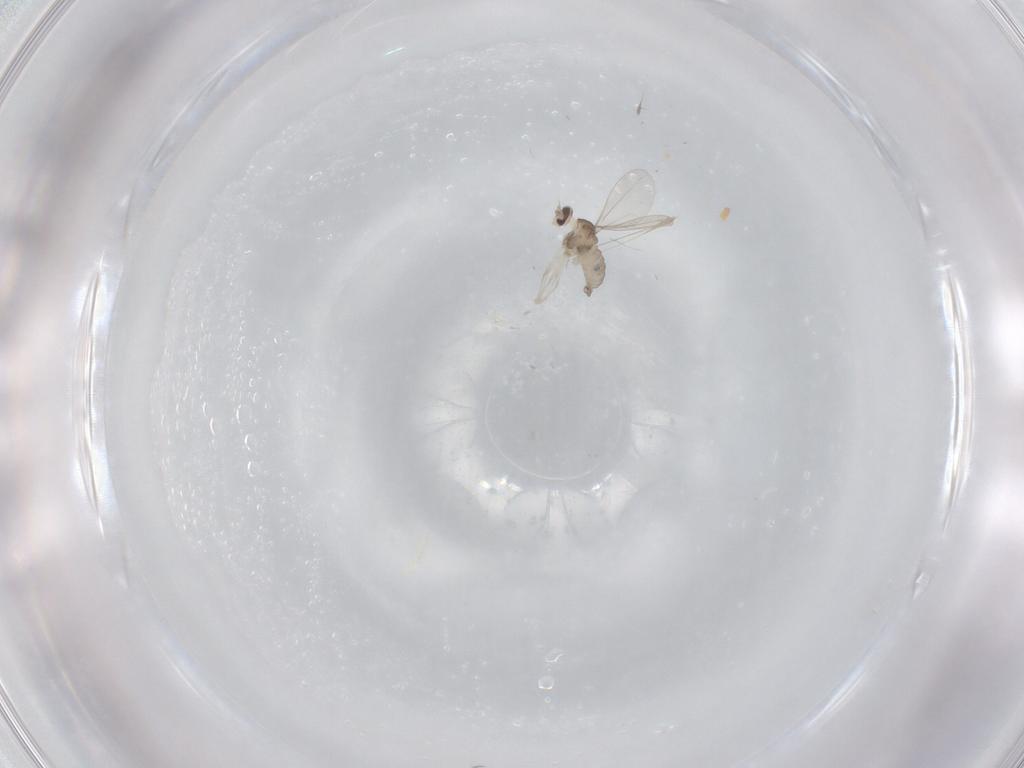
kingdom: Animalia
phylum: Arthropoda
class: Insecta
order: Diptera
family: Cecidomyiidae
